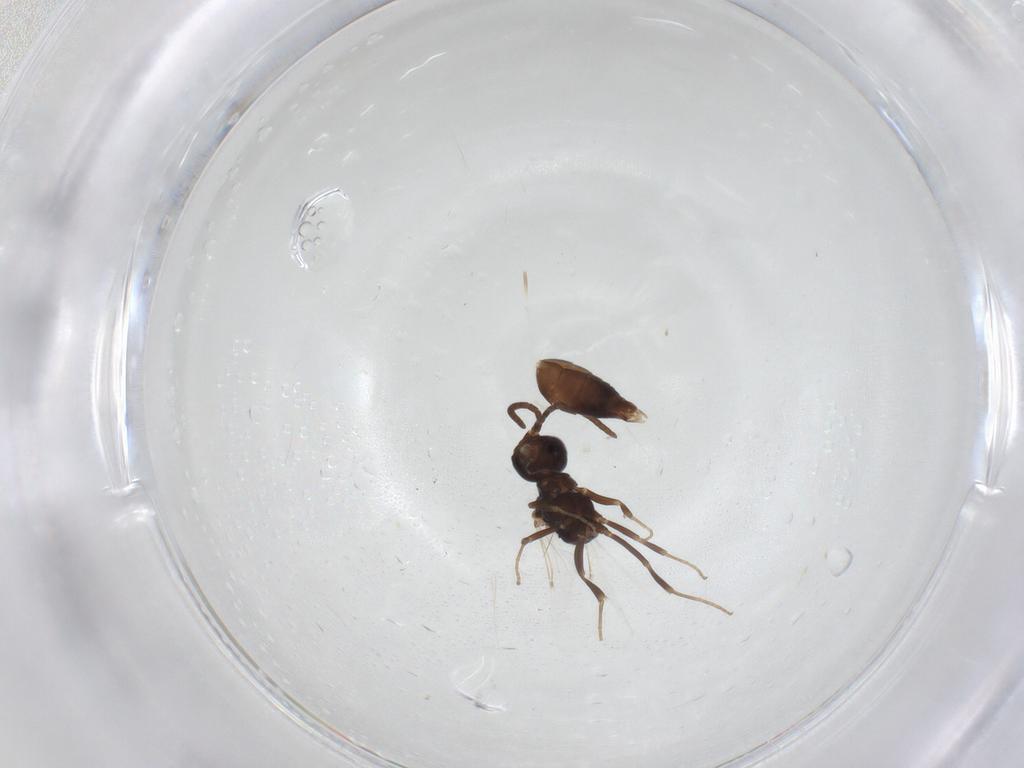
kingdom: Animalia
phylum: Arthropoda
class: Insecta
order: Hymenoptera
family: Bethylidae
